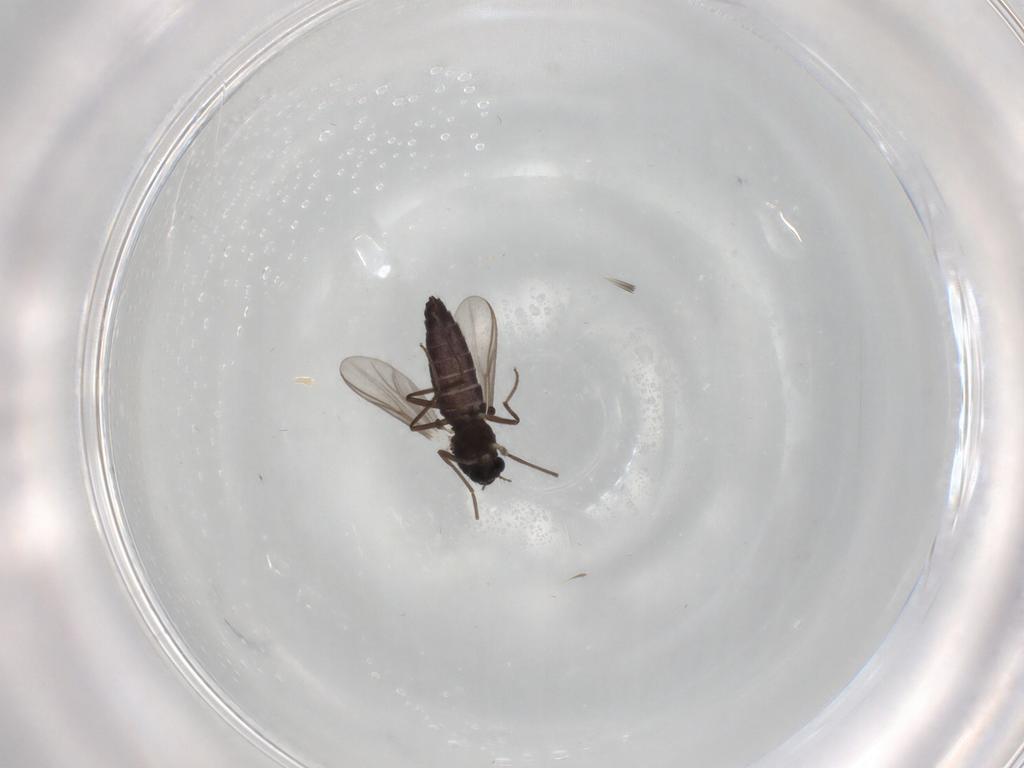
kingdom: Animalia
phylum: Arthropoda
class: Insecta
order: Diptera
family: Chironomidae
